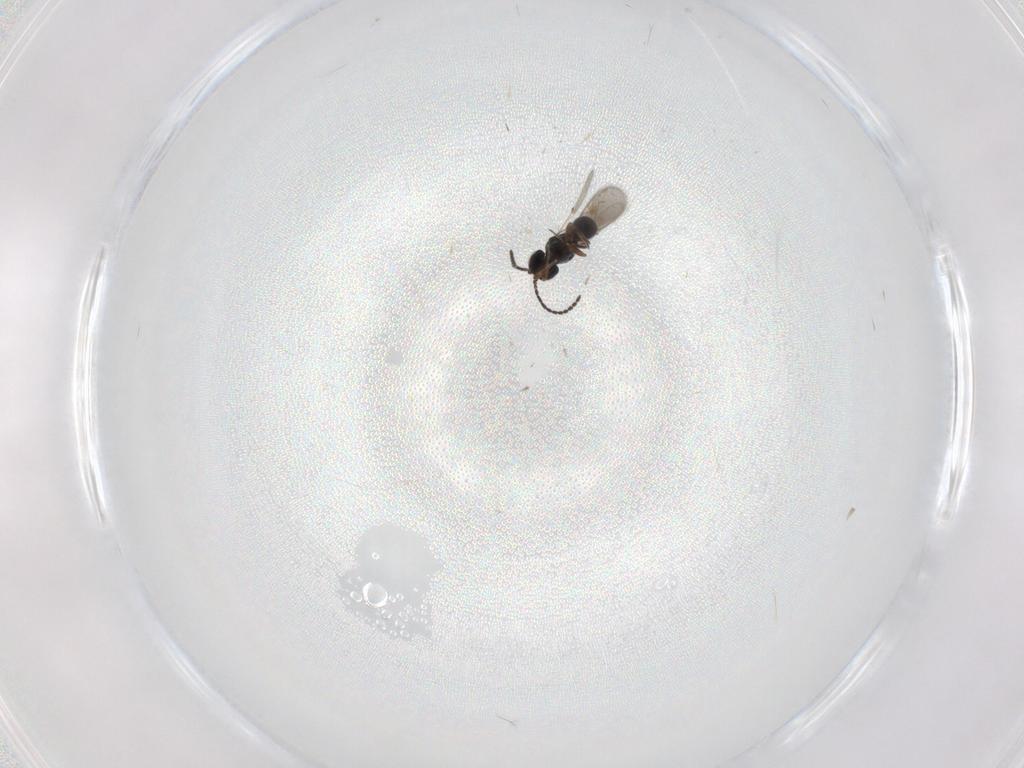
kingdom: Animalia
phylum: Arthropoda
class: Insecta
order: Hymenoptera
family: Scelionidae
